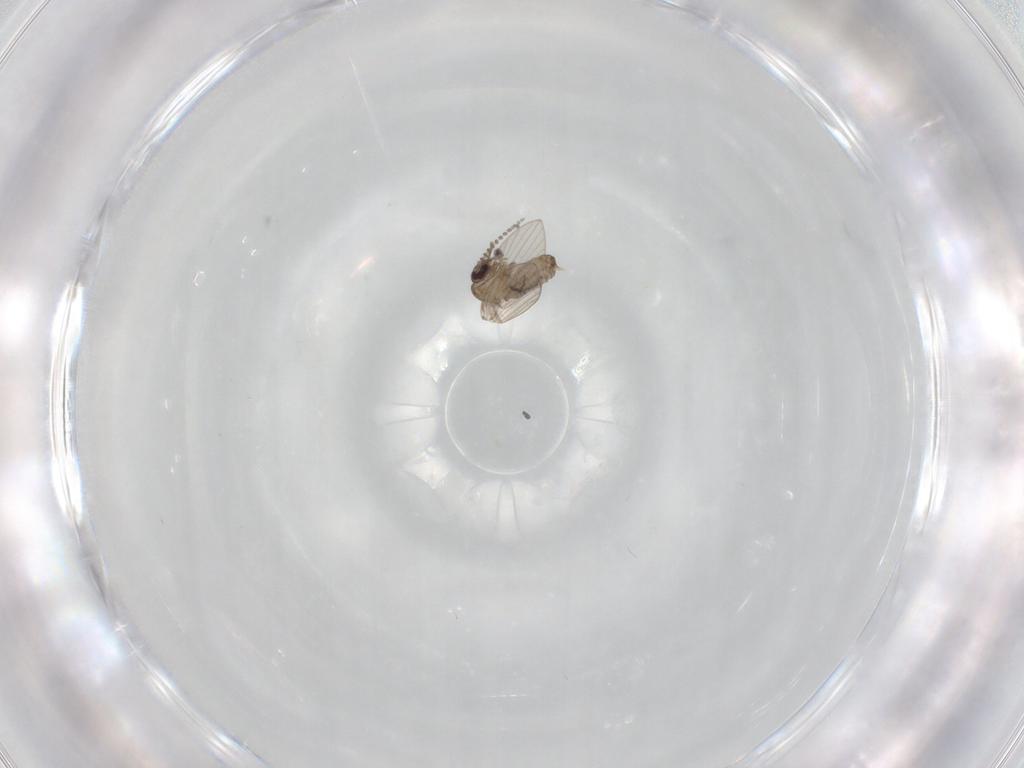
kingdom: Animalia
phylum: Arthropoda
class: Insecta
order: Diptera
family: Psychodidae
